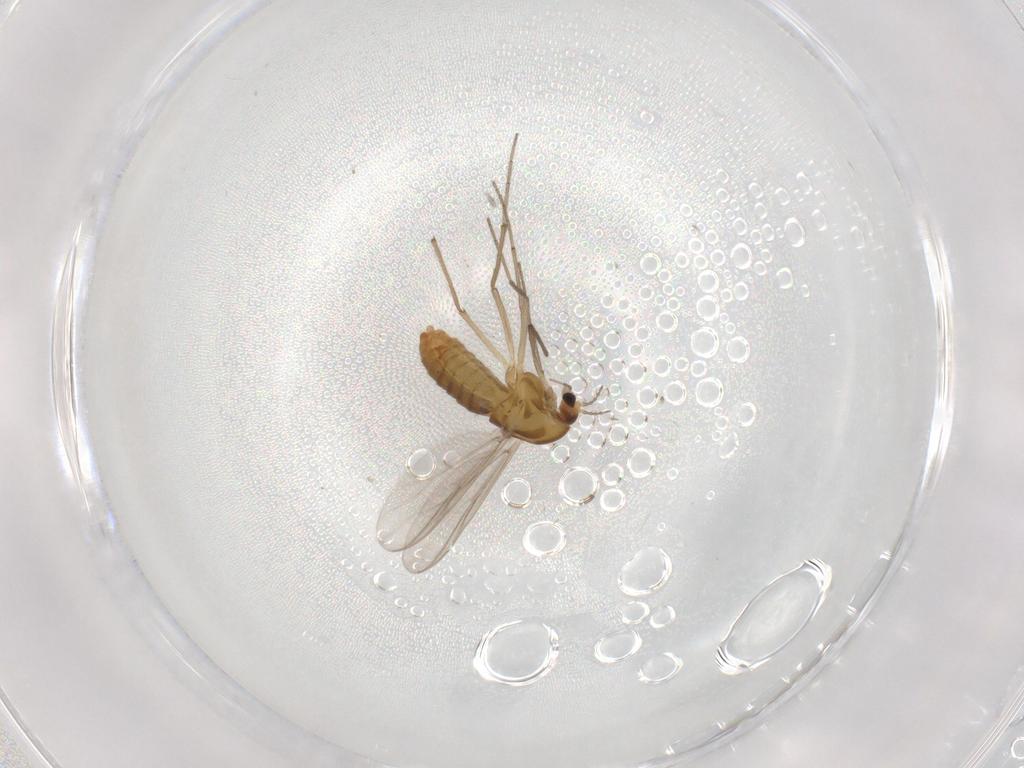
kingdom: Animalia
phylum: Arthropoda
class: Insecta
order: Diptera
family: Chironomidae
